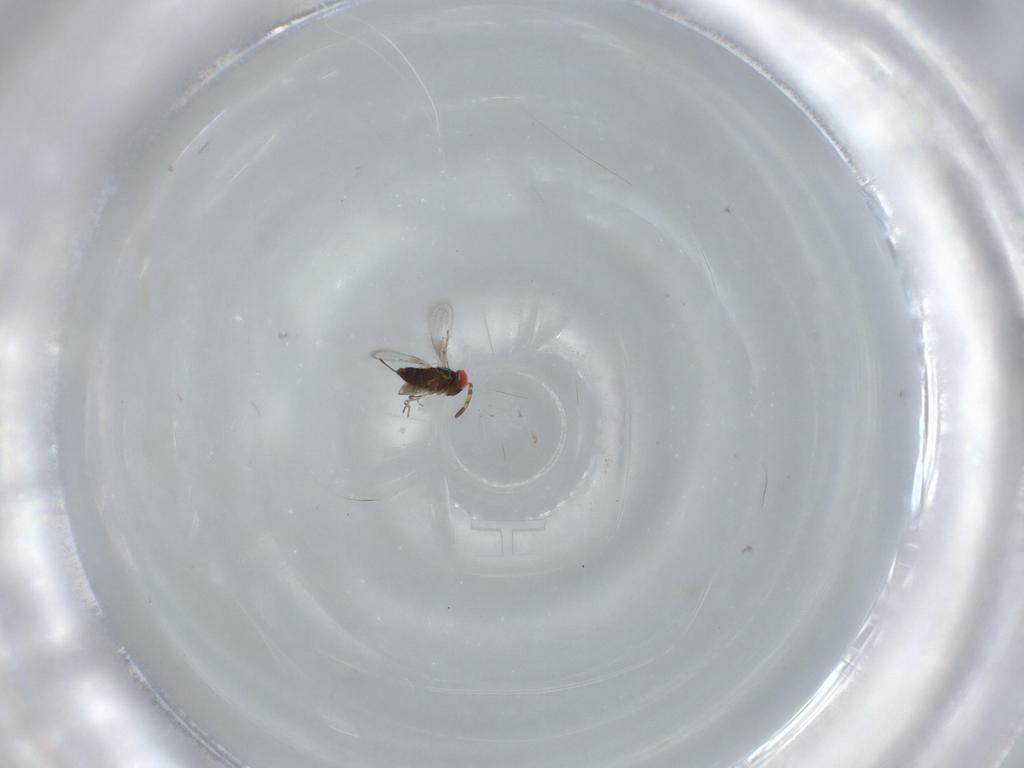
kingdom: Animalia
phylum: Arthropoda
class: Insecta
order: Hymenoptera
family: Azotidae
